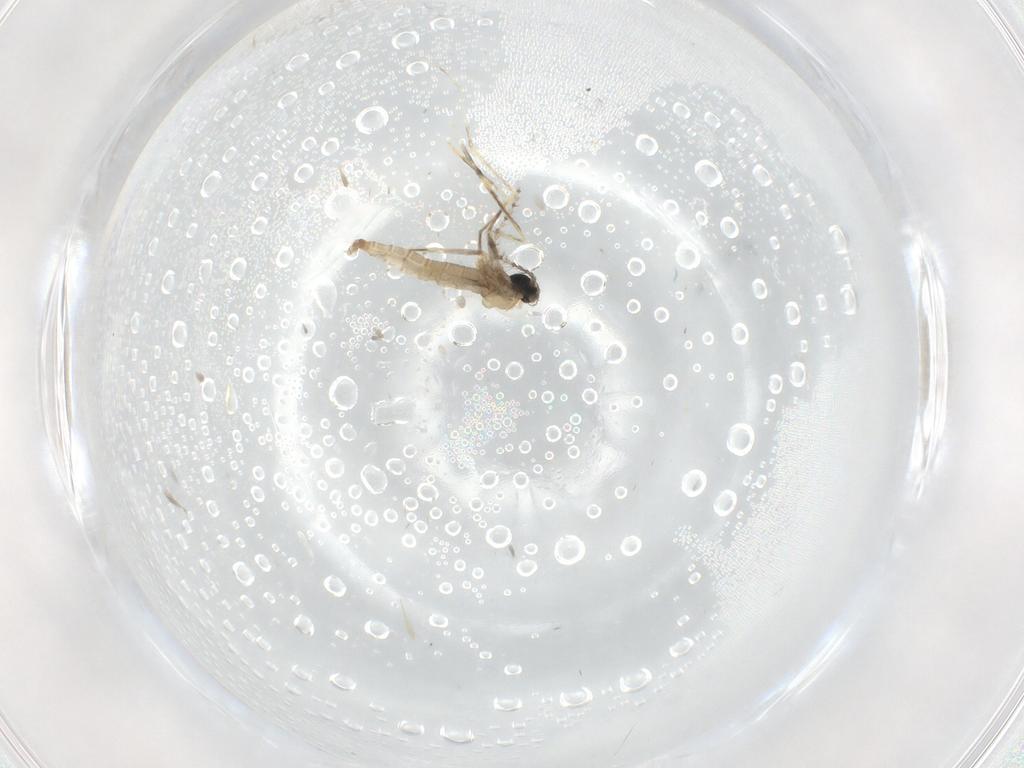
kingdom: Animalia
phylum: Arthropoda
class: Insecta
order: Diptera
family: Cecidomyiidae
